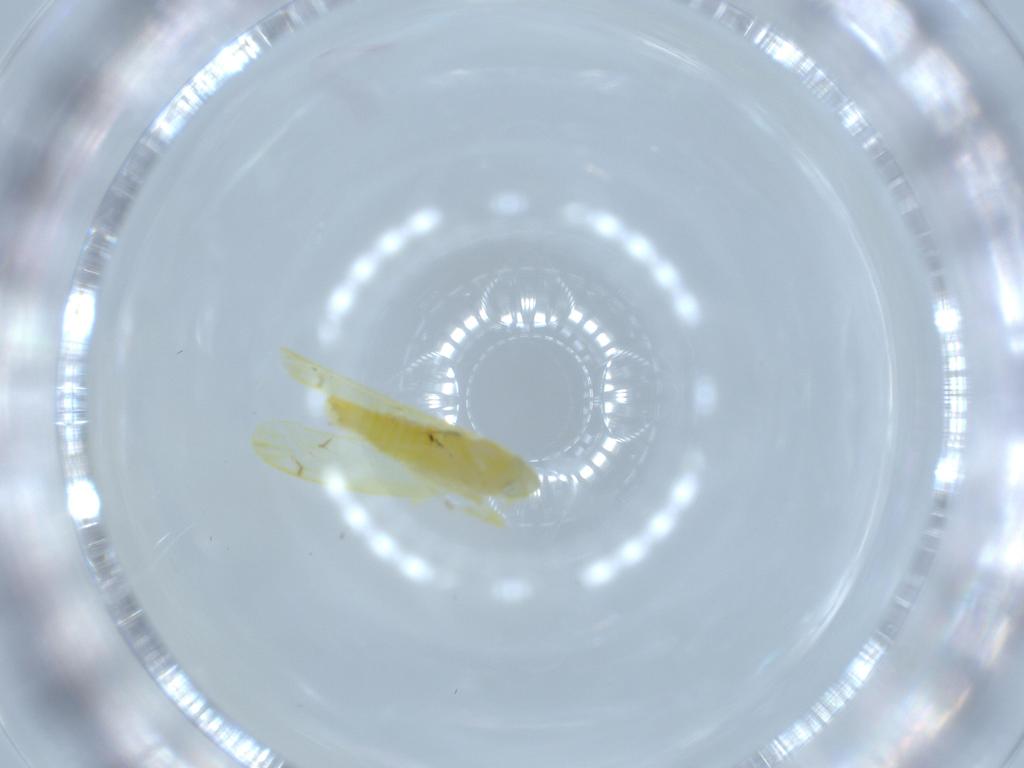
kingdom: Animalia
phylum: Arthropoda
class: Insecta
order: Hemiptera
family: Cicadellidae
